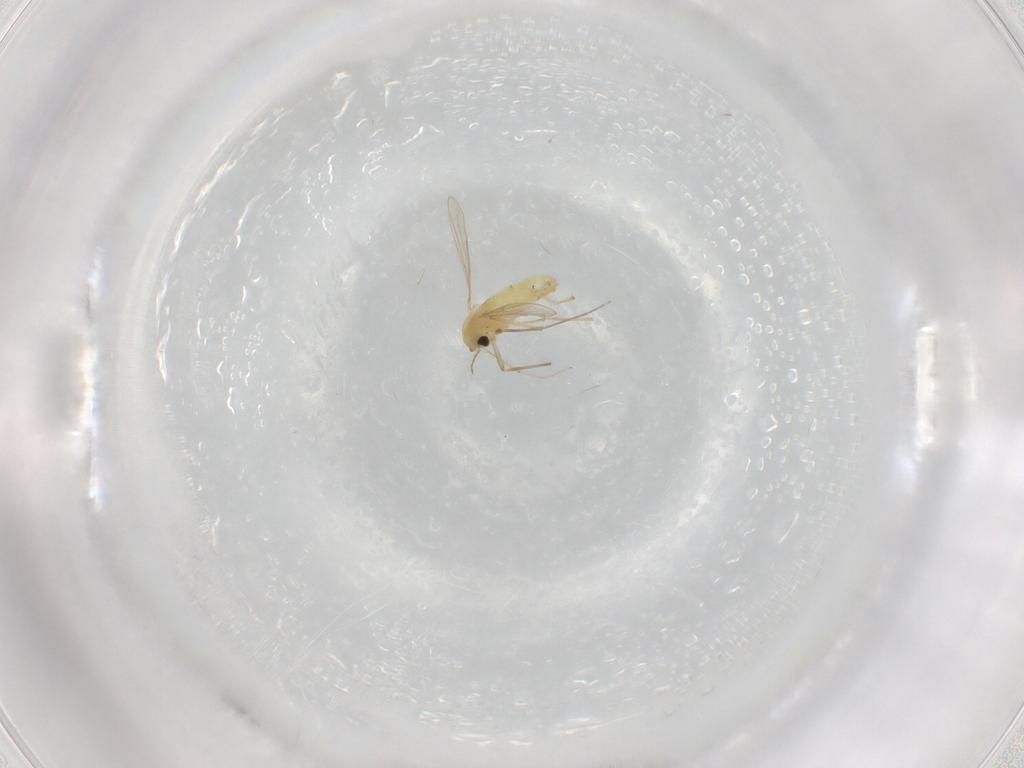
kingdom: Animalia
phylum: Arthropoda
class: Insecta
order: Diptera
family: Chironomidae
